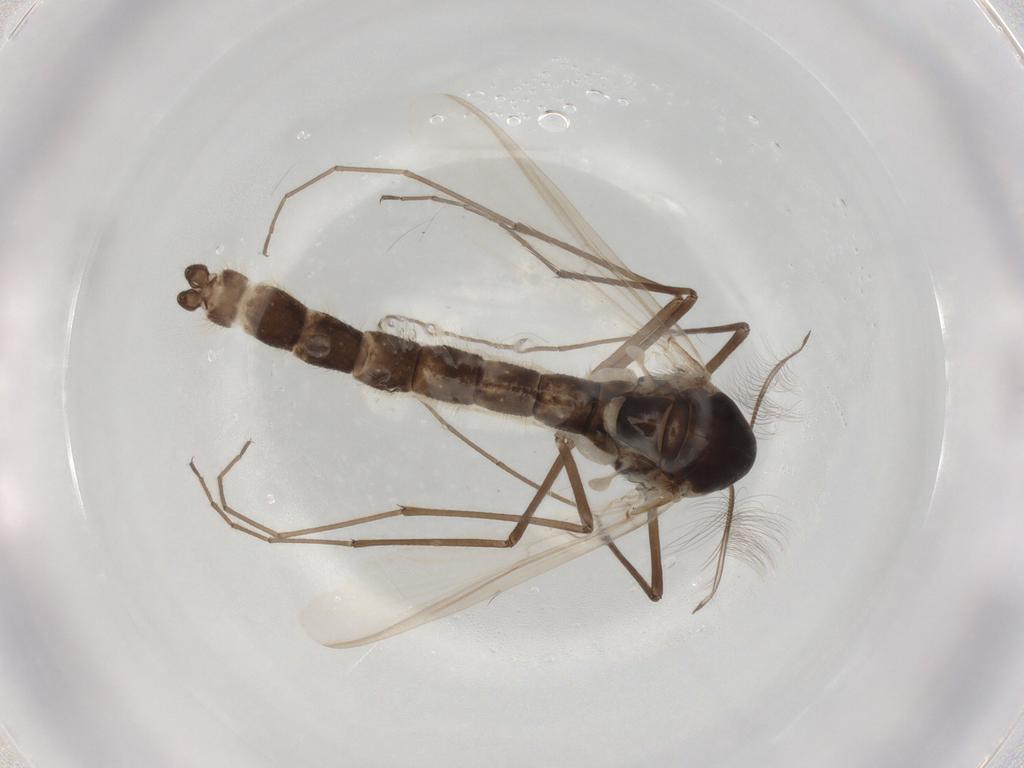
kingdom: Animalia
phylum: Arthropoda
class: Insecta
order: Diptera
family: Chironomidae
